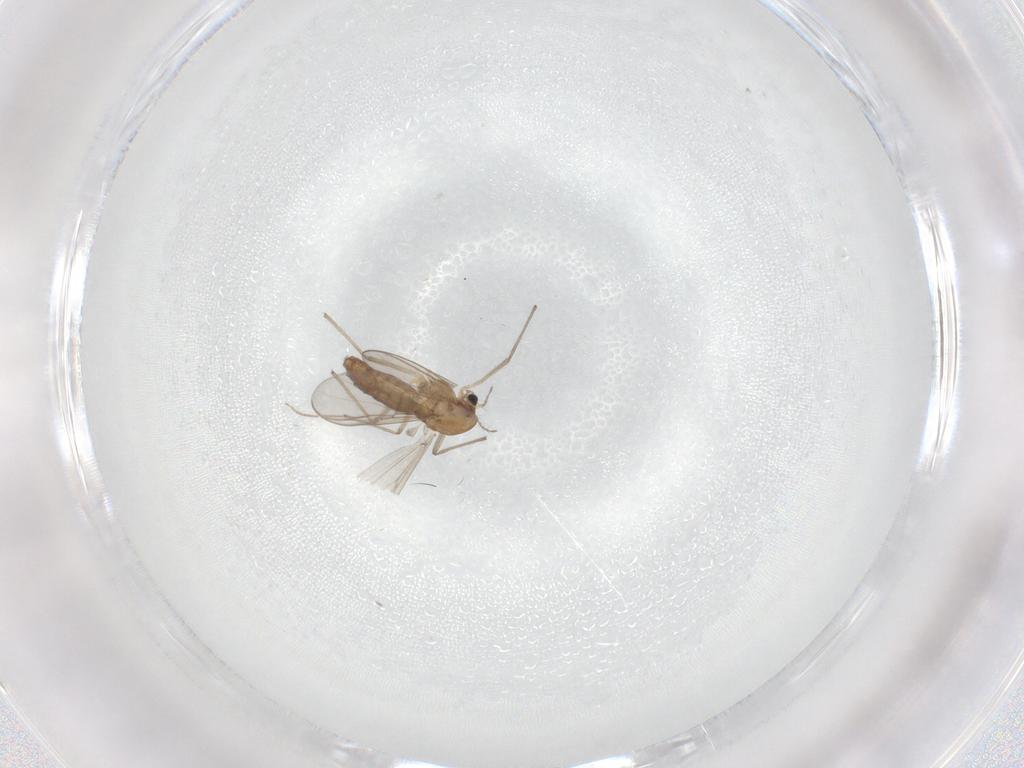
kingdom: Animalia
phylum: Arthropoda
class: Insecta
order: Diptera
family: Chironomidae
